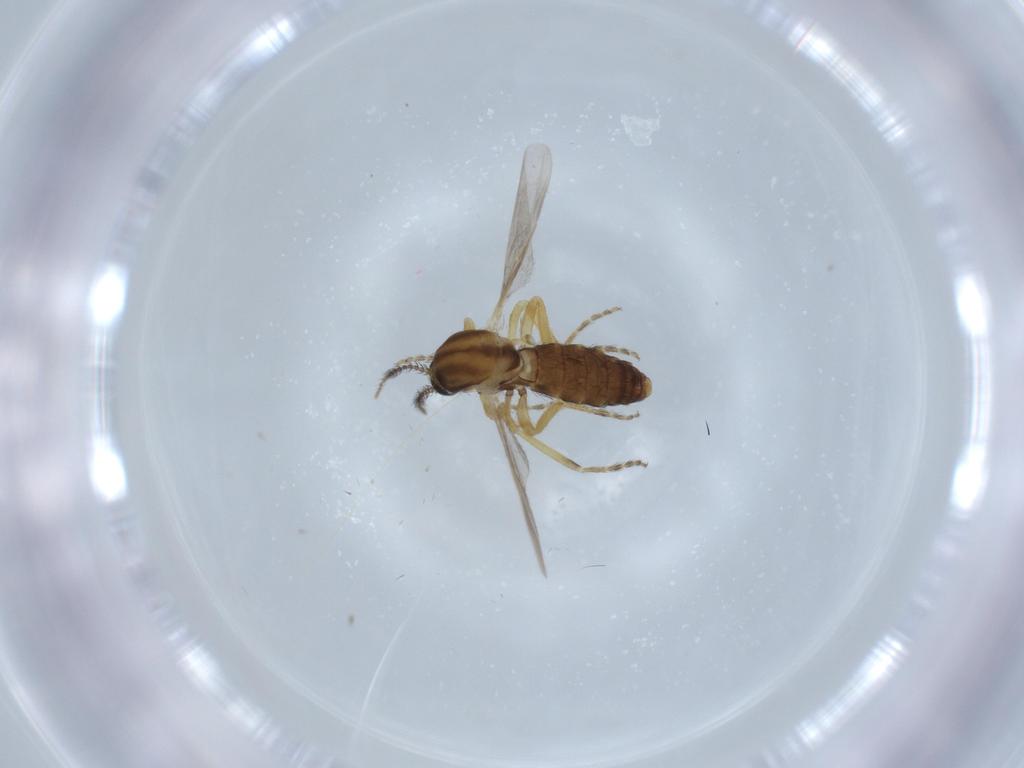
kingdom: Animalia
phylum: Arthropoda
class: Insecta
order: Diptera
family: Ceratopogonidae
